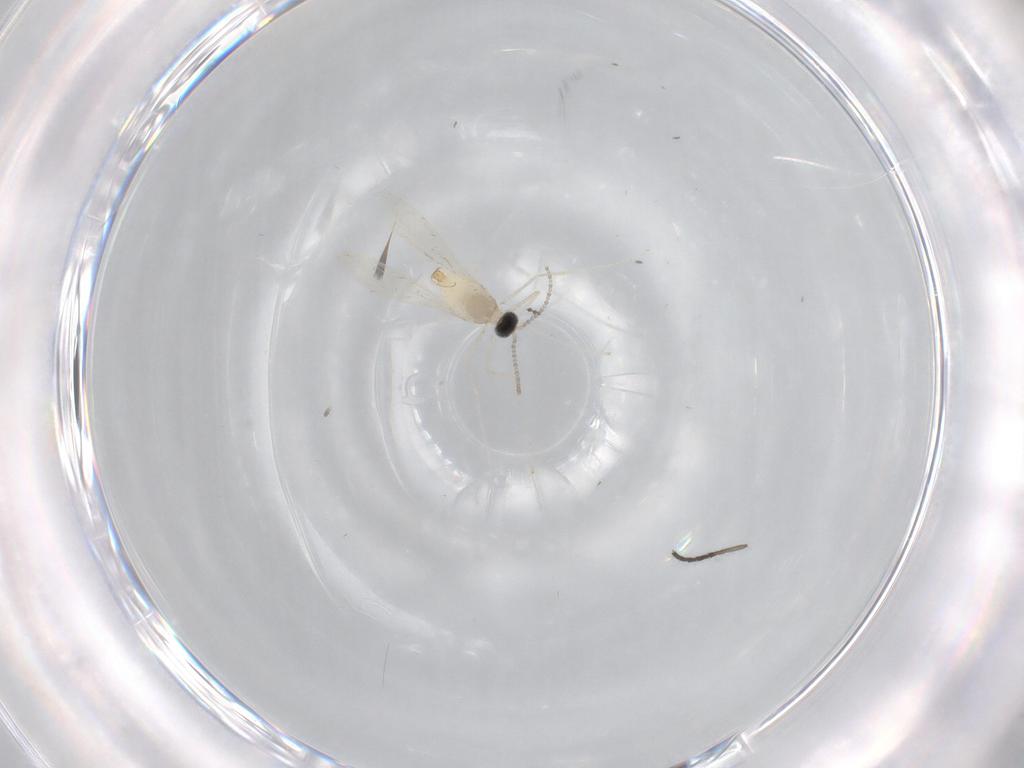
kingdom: Animalia
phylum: Arthropoda
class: Insecta
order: Diptera
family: Cecidomyiidae
